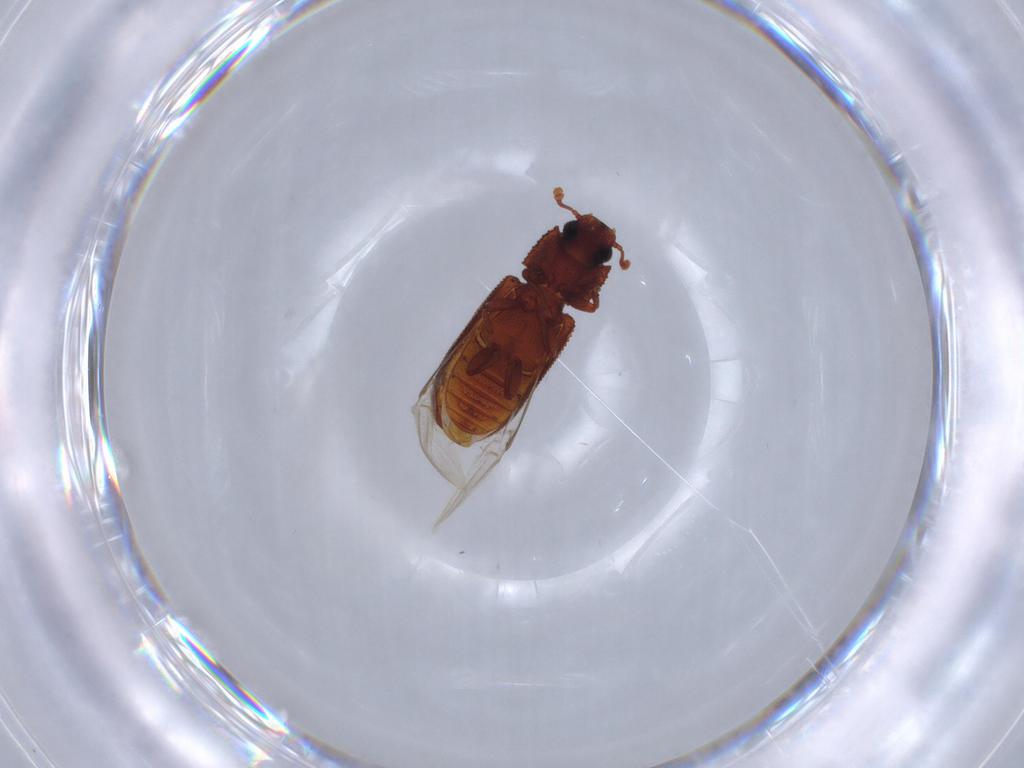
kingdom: Animalia
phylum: Arthropoda
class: Insecta
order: Coleoptera
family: Zopheridae
